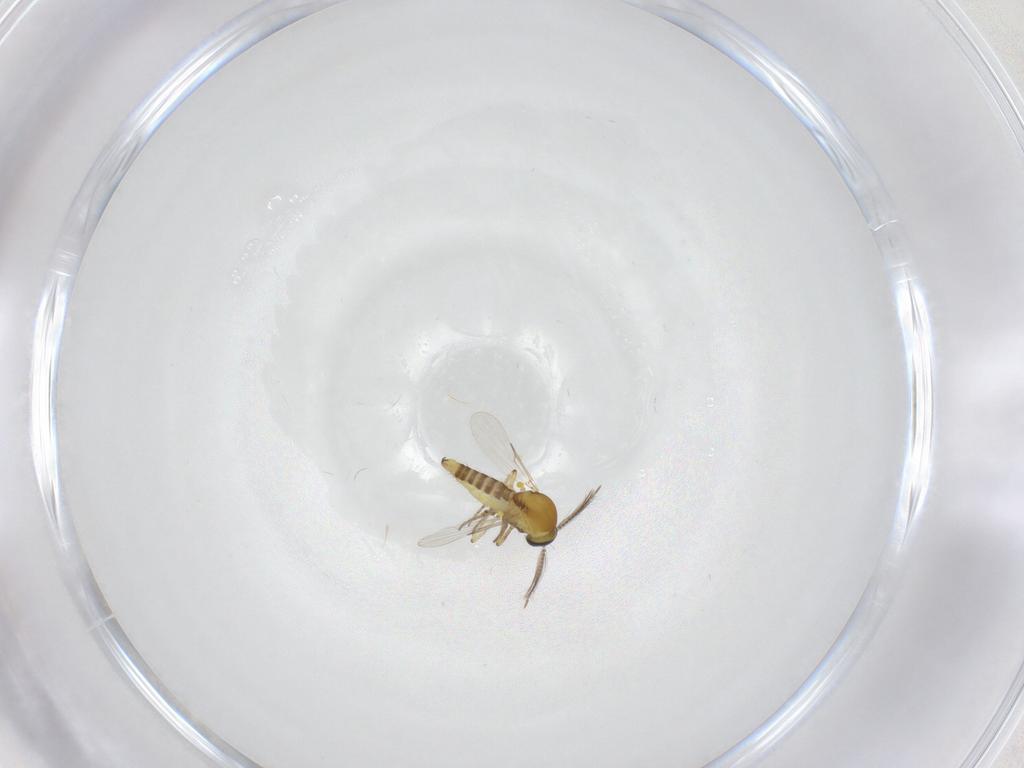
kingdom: Animalia
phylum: Arthropoda
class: Insecta
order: Diptera
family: Ceratopogonidae
